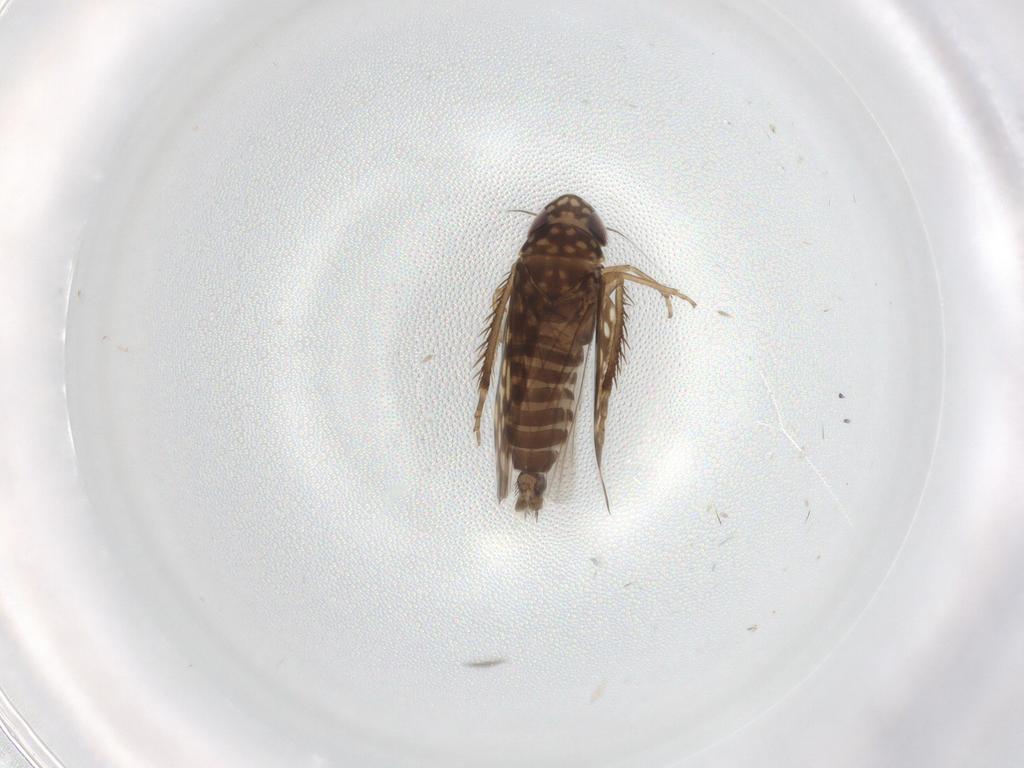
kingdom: Animalia
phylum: Arthropoda
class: Insecta
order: Hemiptera
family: Cicadellidae
